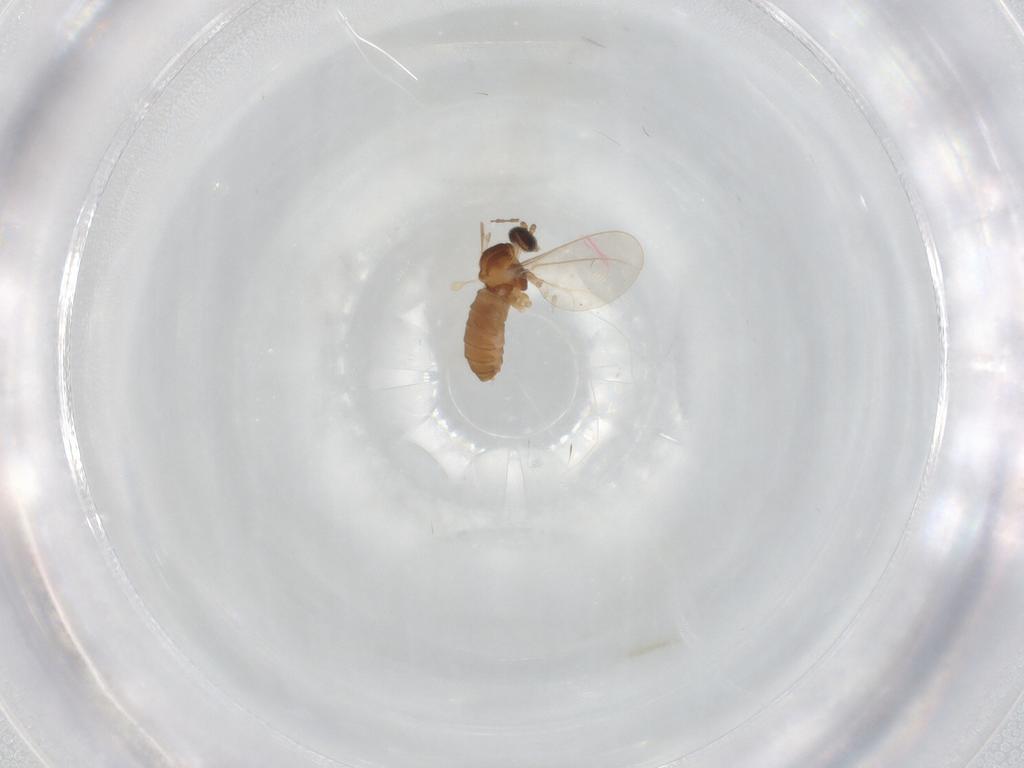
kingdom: Animalia
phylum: Arthropoda
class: Insecta
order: Diptera
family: Cecidomyiidae
